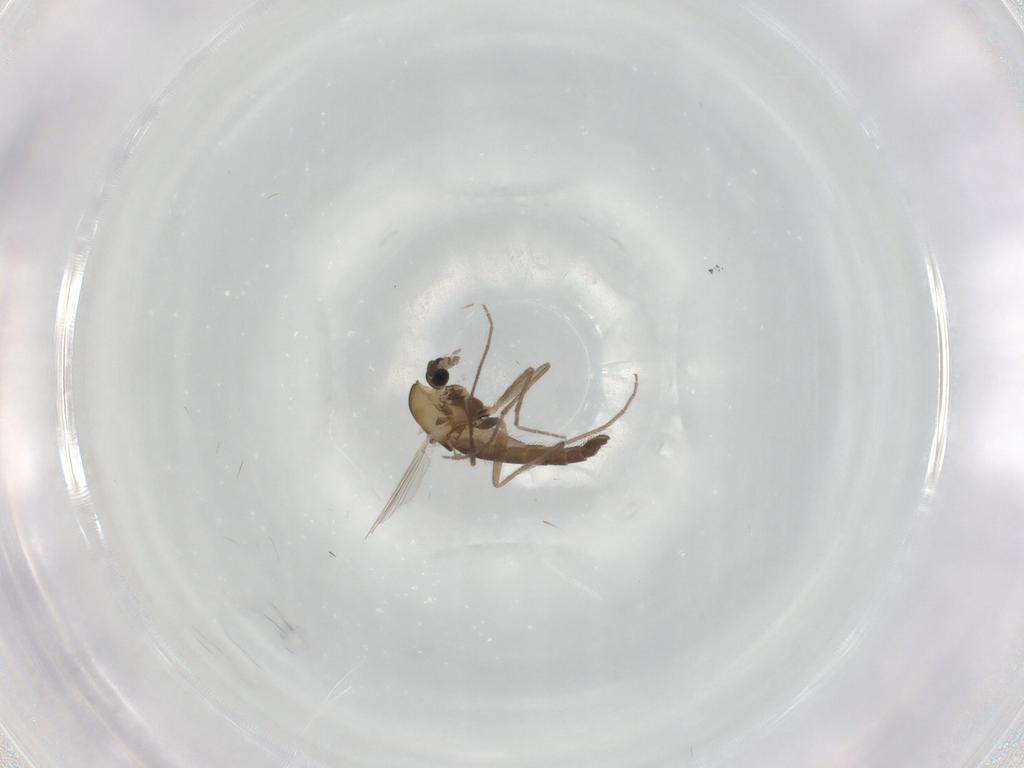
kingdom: Animalia
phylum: Arthropoda
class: Insecta
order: Diptera
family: Chironomidae
